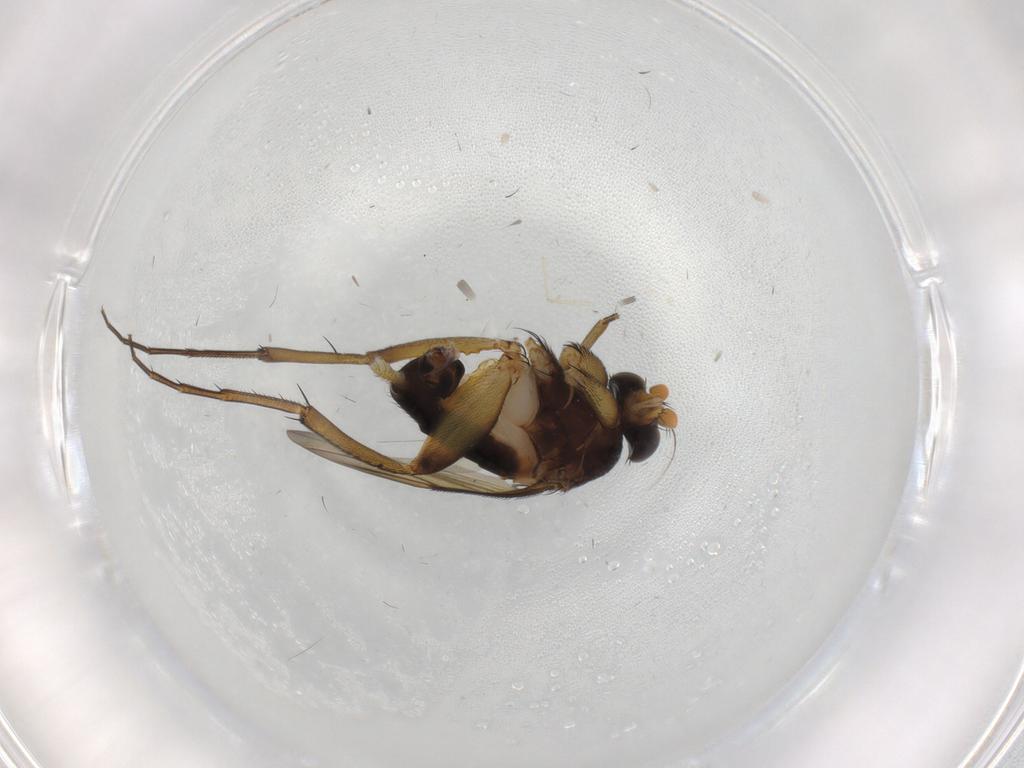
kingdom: Animalia
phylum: Arthropoda
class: Insecta
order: Diptera
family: Phoridae
